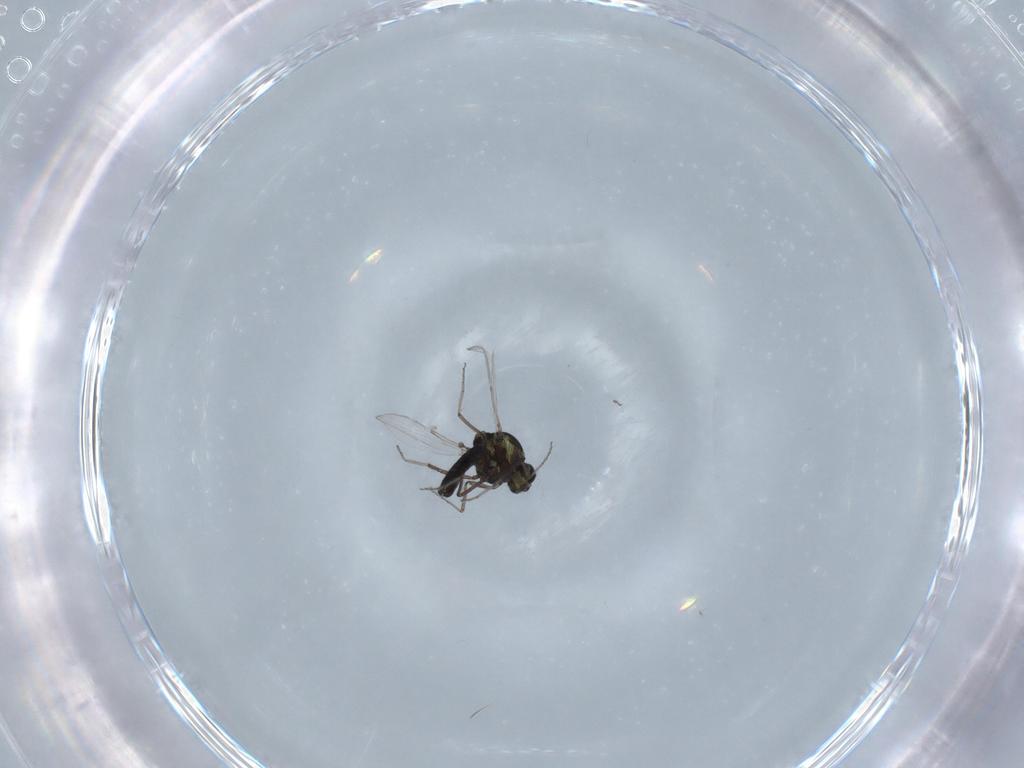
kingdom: Animalia
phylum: Arthropoda
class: Insecta
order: Diptera
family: Ceratopogonidae
